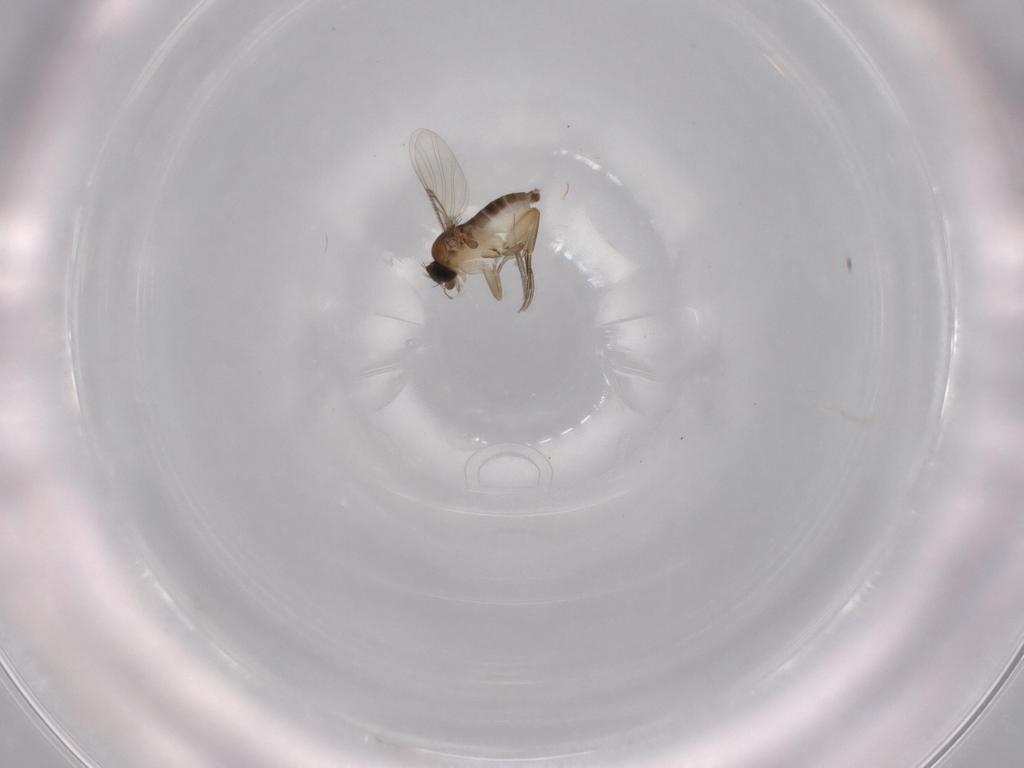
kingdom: Animalia
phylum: Arthropoda
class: Insecta
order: Diptera
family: Phoridae
